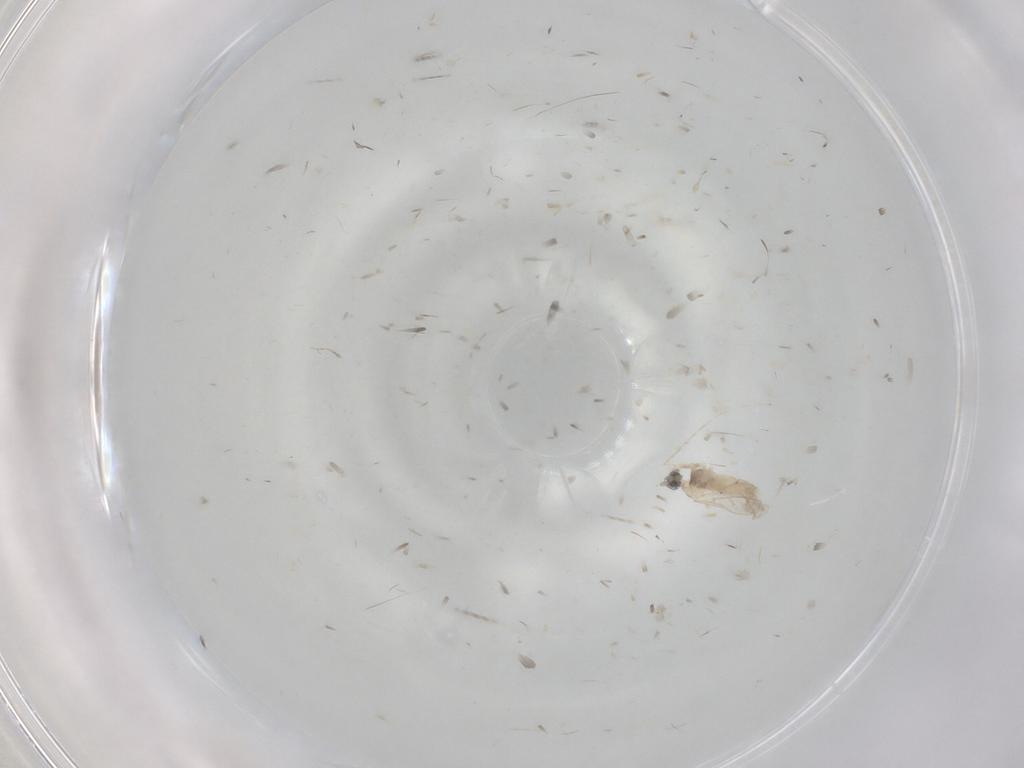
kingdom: Animalia
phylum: Arthropoda
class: Insecta
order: Diptera
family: Cecidomyiidae
